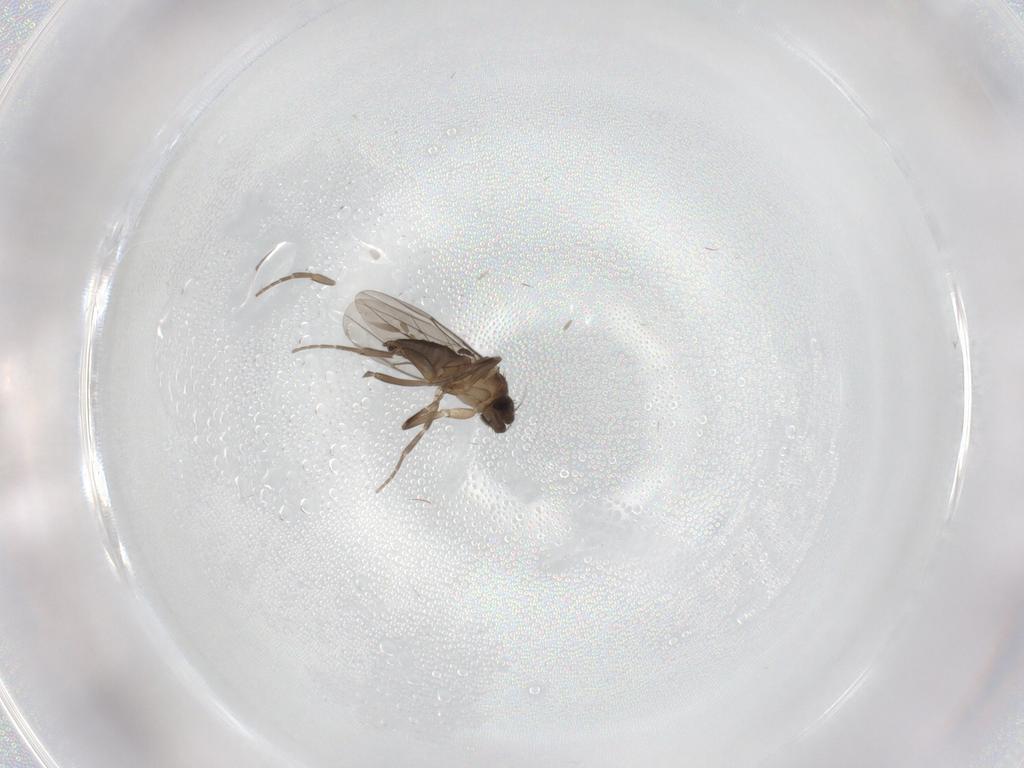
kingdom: Animalia
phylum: Arthropoda
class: Insecta
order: Diptera
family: Phoridae
